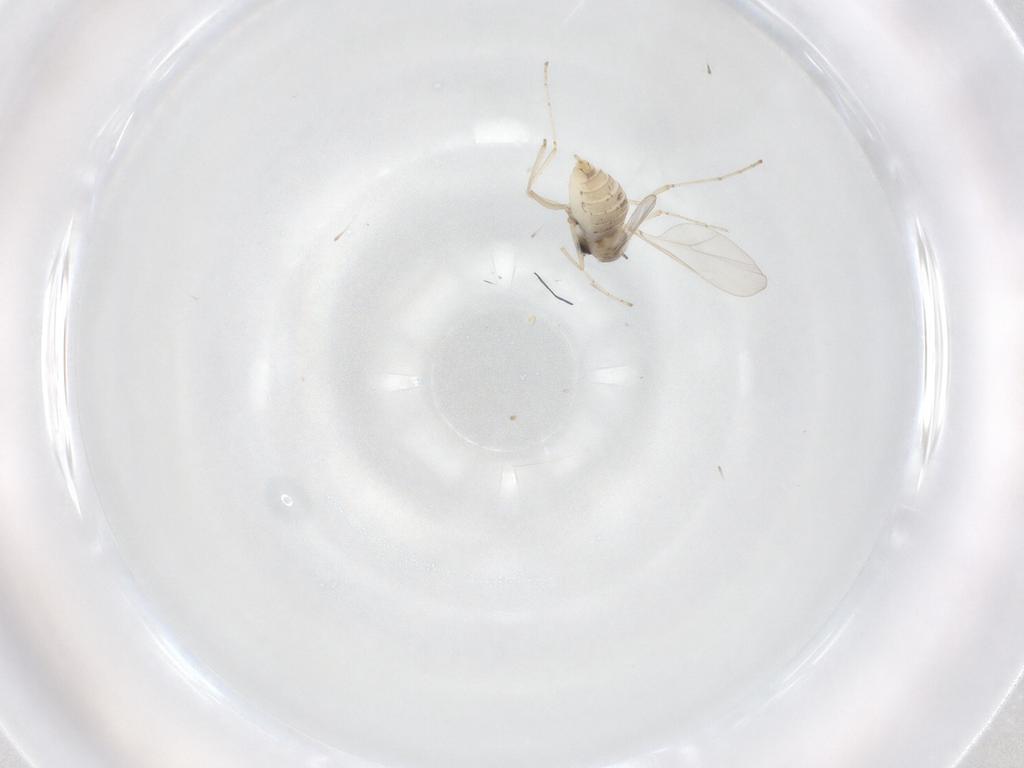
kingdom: Animalia
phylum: Arthropoda
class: Insecta
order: Diptera
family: Cecidomyiidae
